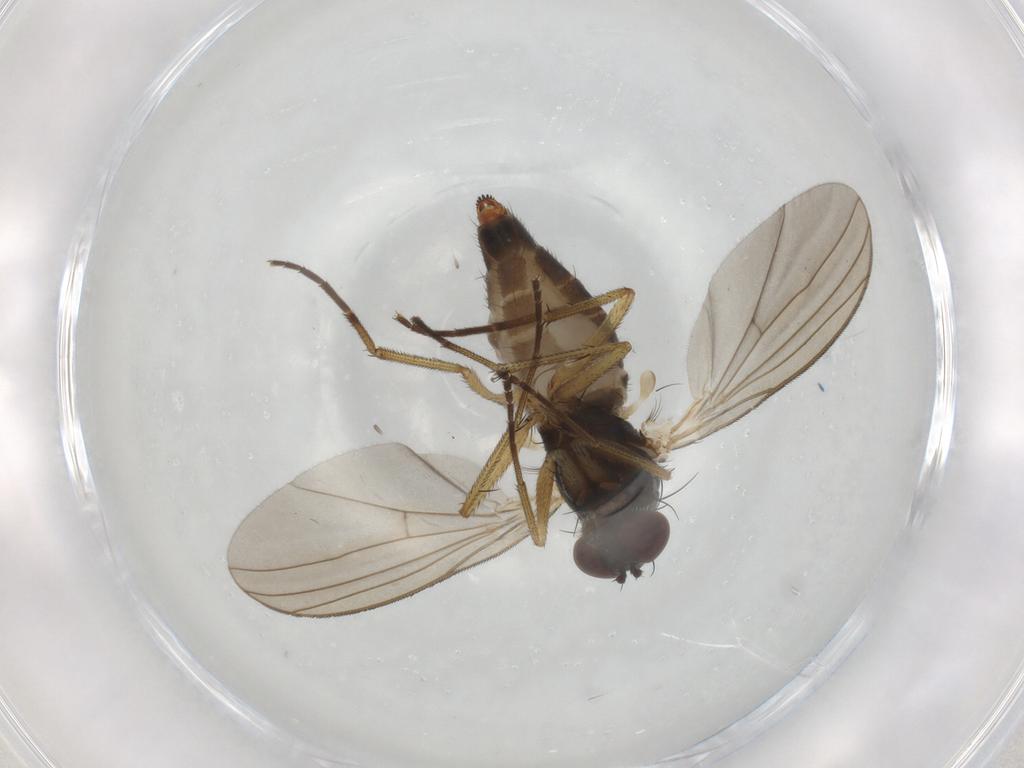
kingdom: Animalia
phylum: Arthropoda
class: Insecta
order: Diptera
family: Dolichopodidae
